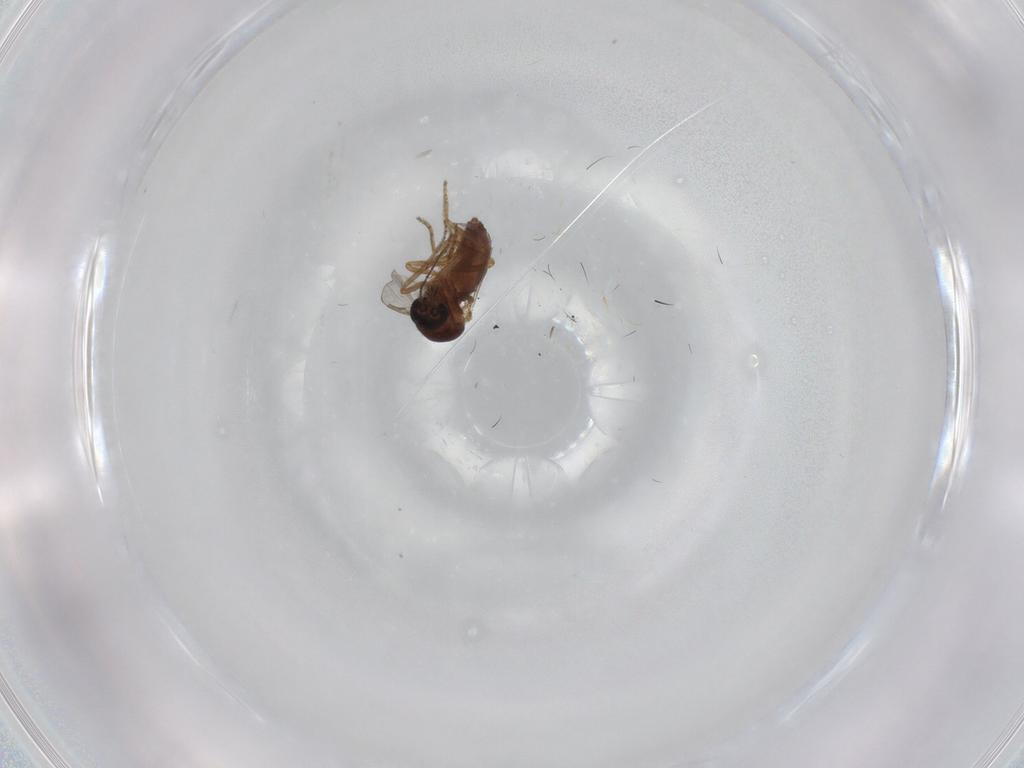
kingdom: Animalia
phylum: Arthropoda
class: Insecta
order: Diptera
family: Ceratopogonidae
